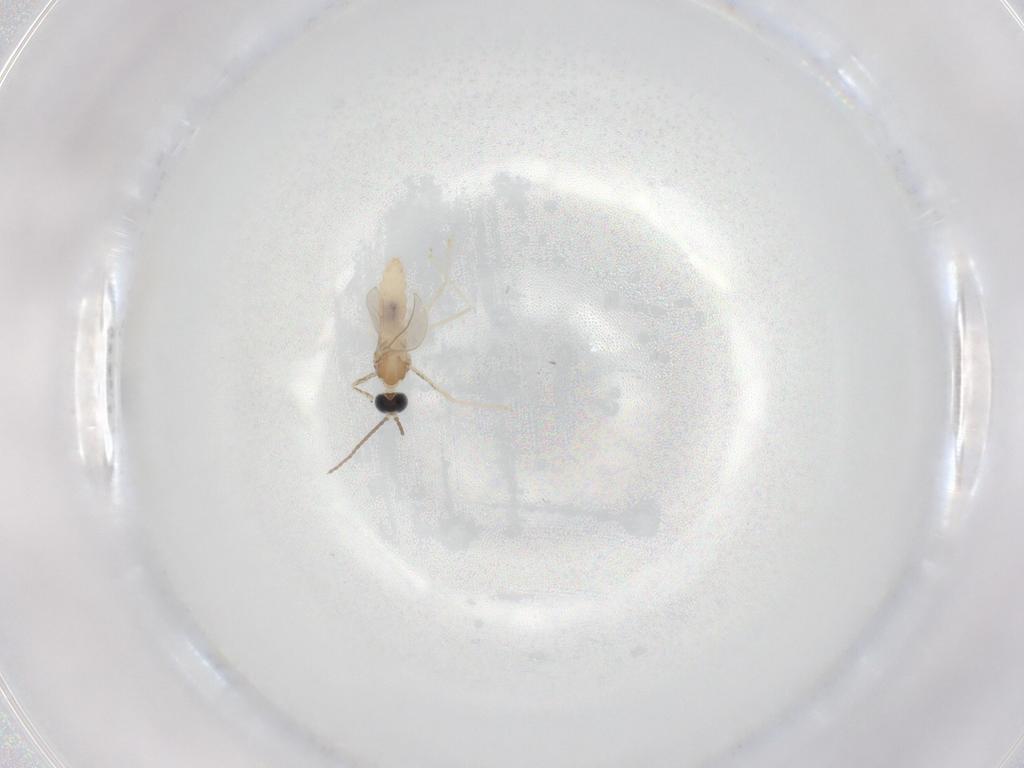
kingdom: Animalia
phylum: Arthropoda
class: Insecta
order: Diptera
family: Cecidomyiidae
